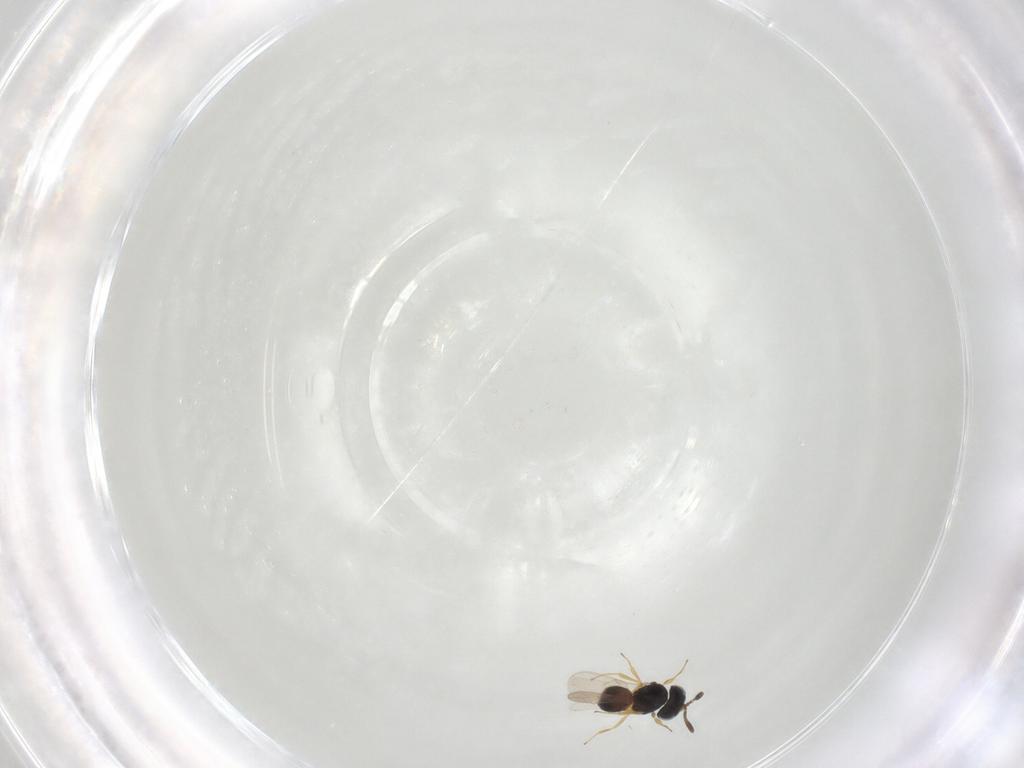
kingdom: Animalia
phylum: Arthropoda
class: Insecta
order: Hymenoptera
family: Scelionidae
